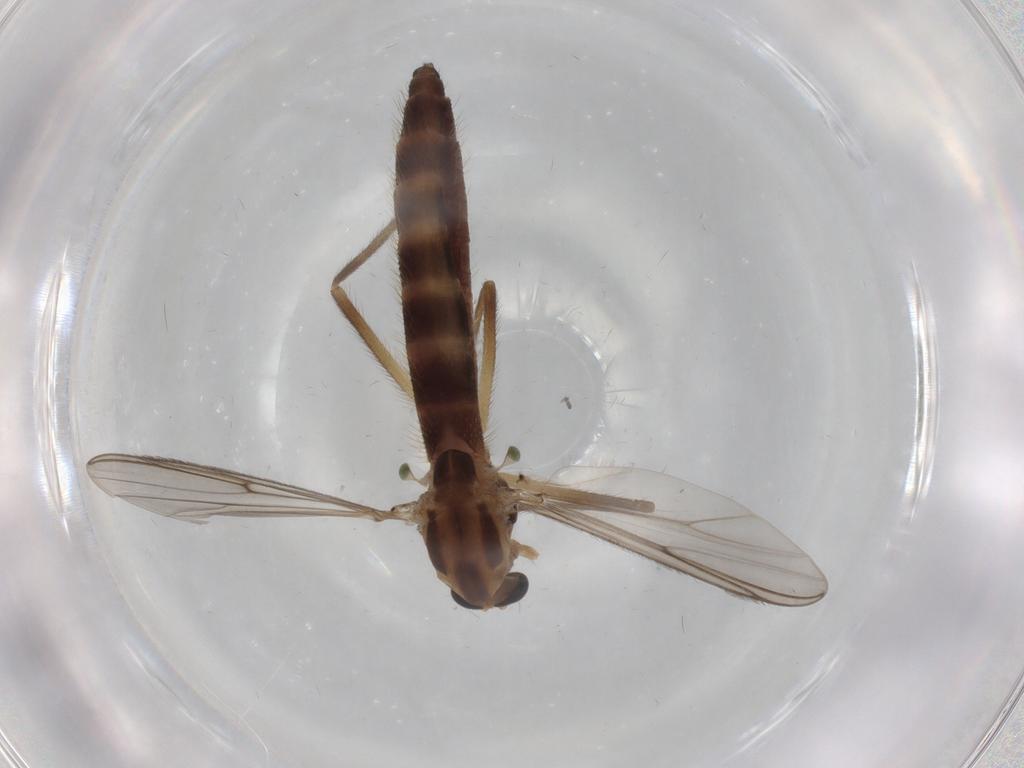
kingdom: Animalia
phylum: Arthropoda
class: Insecta
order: Diptera
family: Chironomidae
